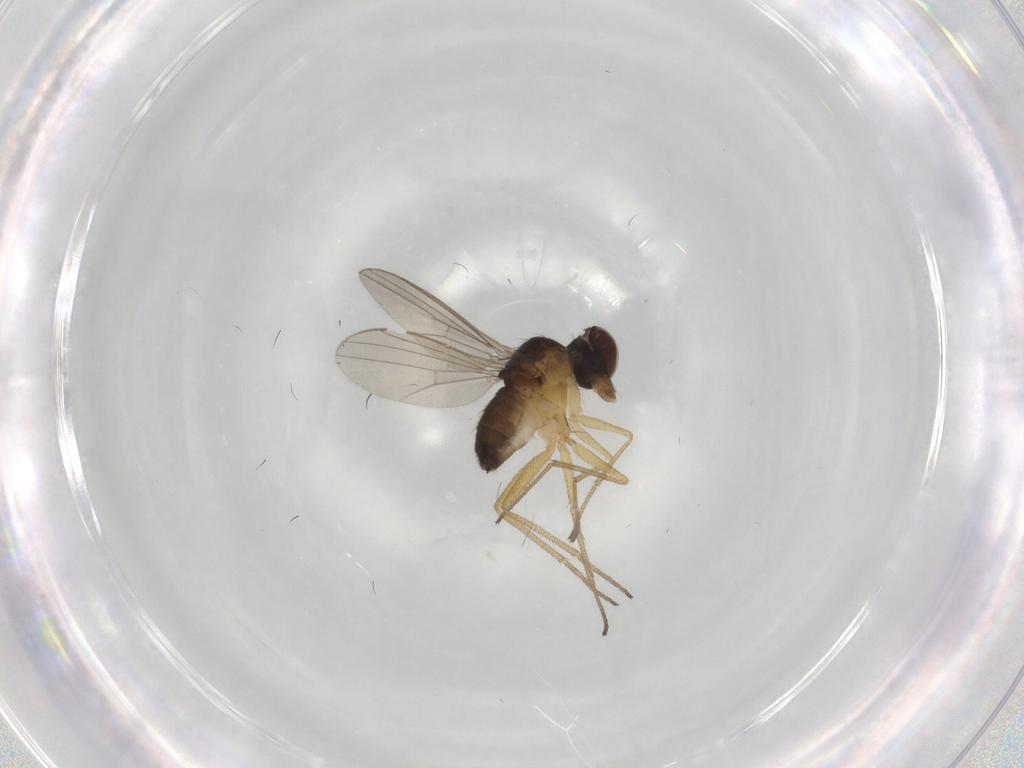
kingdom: Animalia
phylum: Arthropoda
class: Insecta
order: Diptera
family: Dolichopodidae
